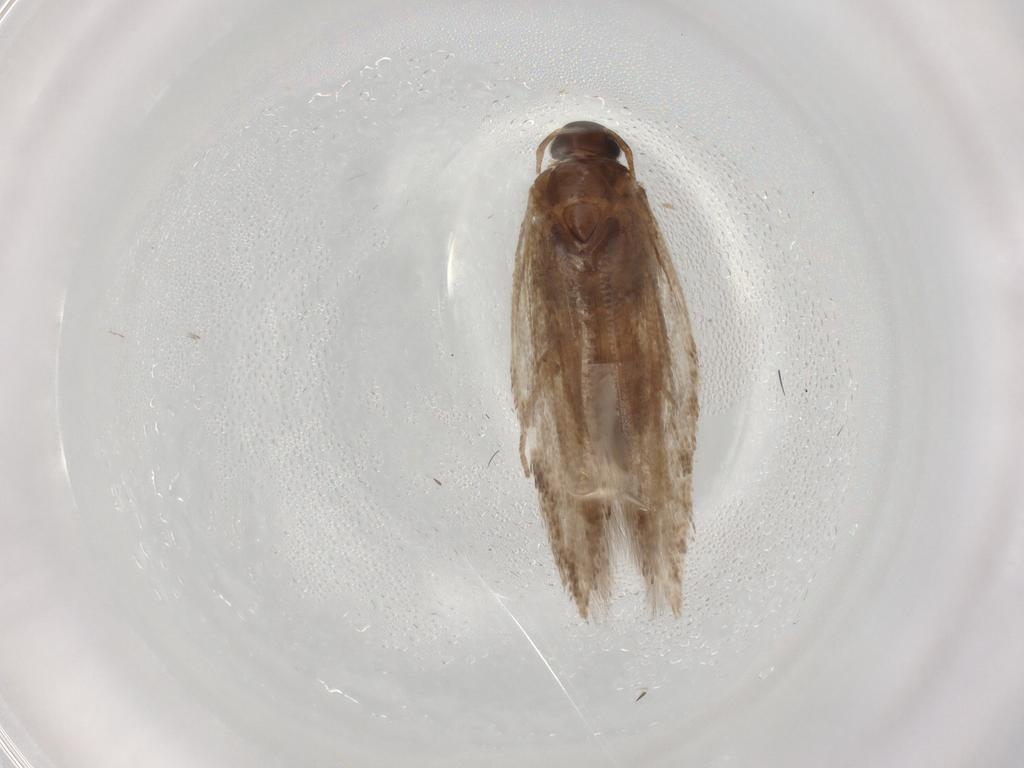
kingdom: Animalia
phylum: Arthropoda
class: Insecta
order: Lepidoptera
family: Gelechiidae
